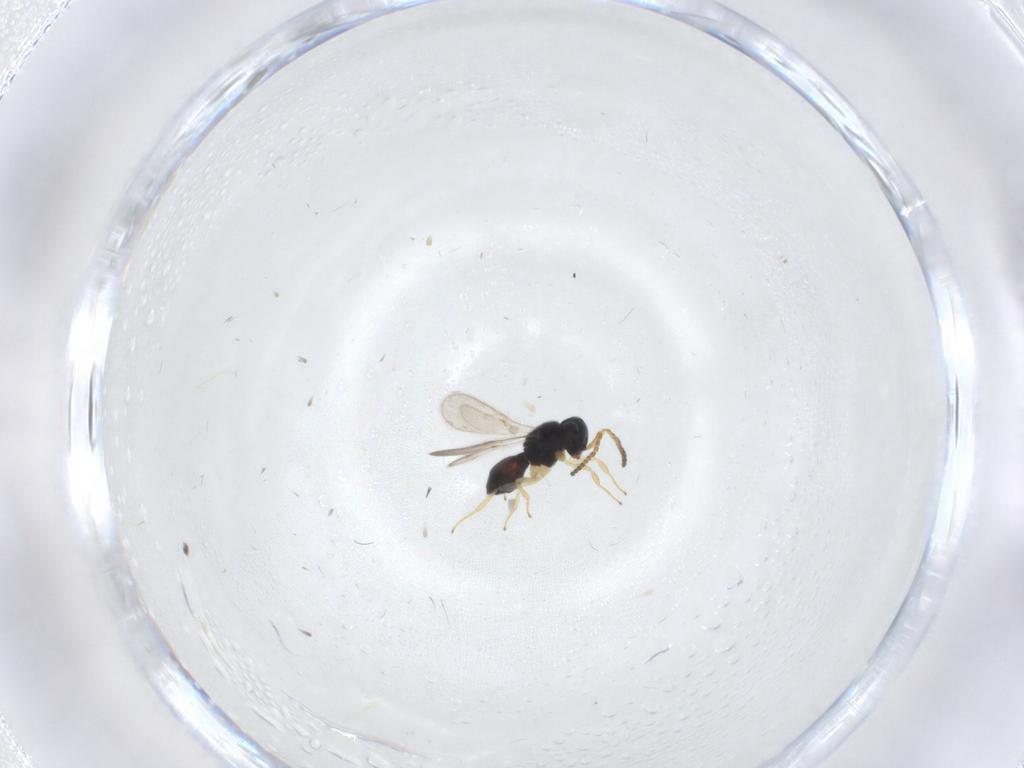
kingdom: Animalia
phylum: Arthropoda
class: Insecta
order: Hymenoptera
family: Scelionidae
